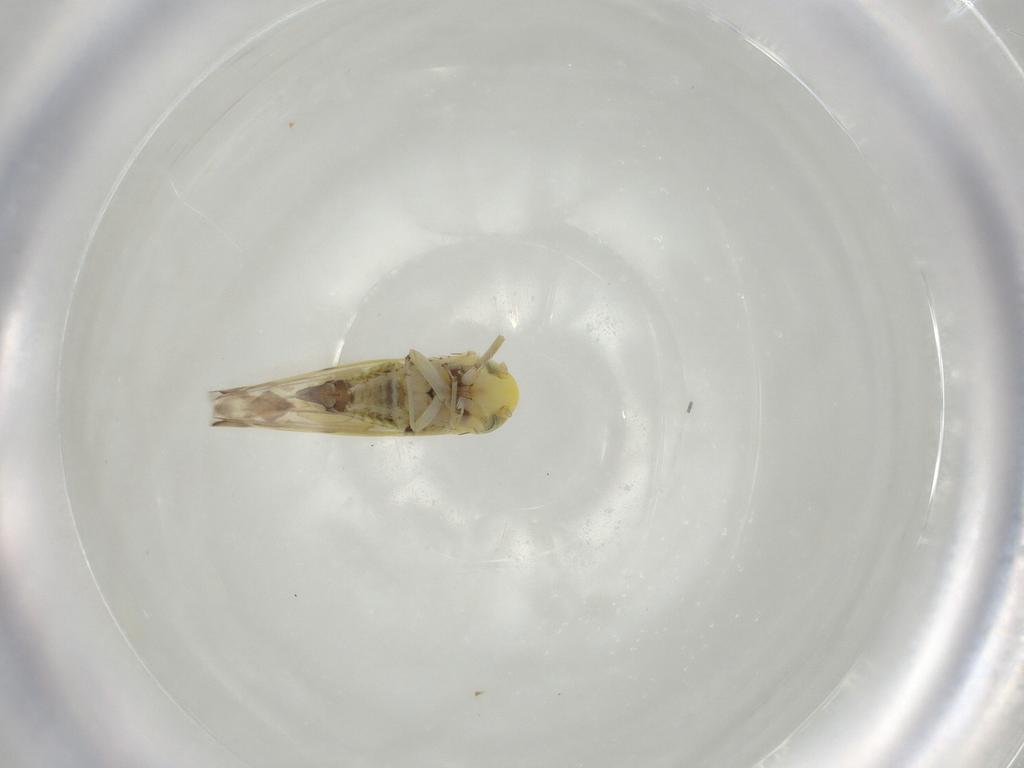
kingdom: Animalia
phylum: Arthropoda
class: Insecta
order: Hemiptera
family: Cicadellidae
